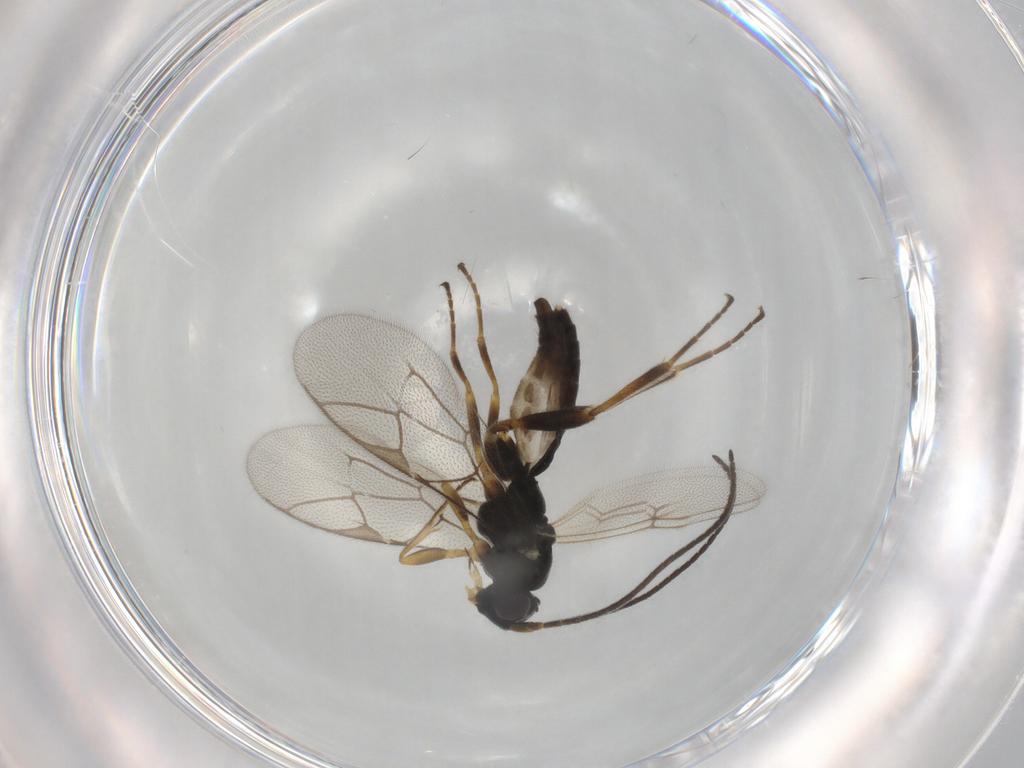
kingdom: Animalia
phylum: Arthropoda
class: Insecta
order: Hymenoptera
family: Ichneumonidae
